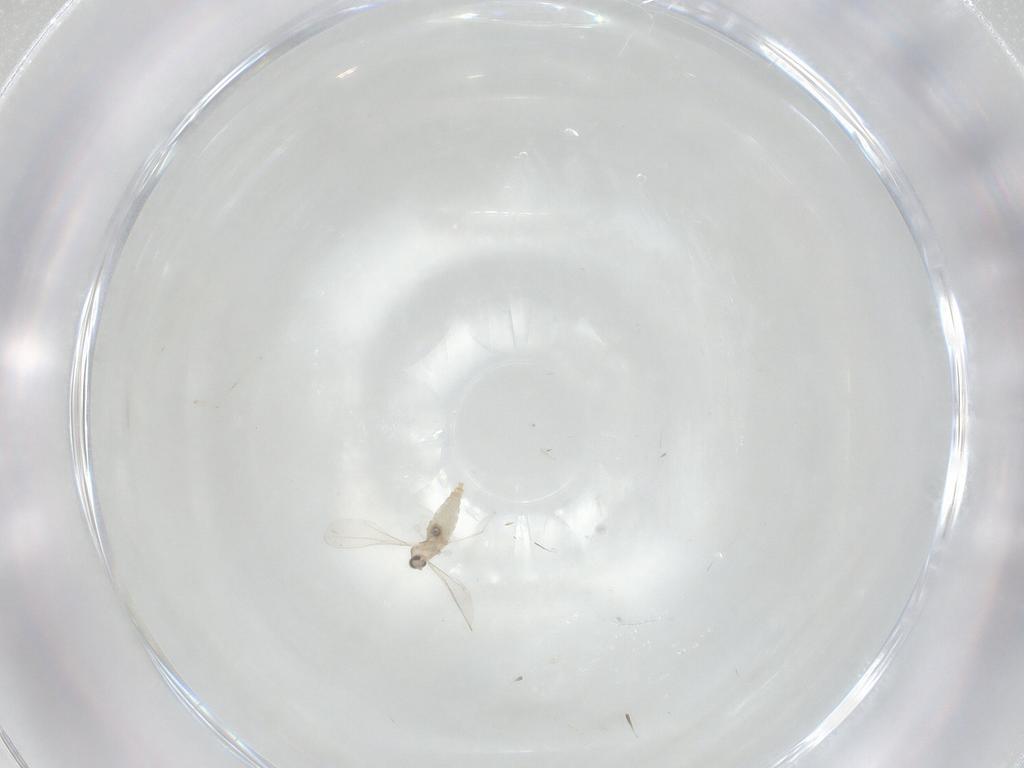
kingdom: Animalia
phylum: Arthropoda
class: Insecta
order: Diptera
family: Cecidomyiidae
